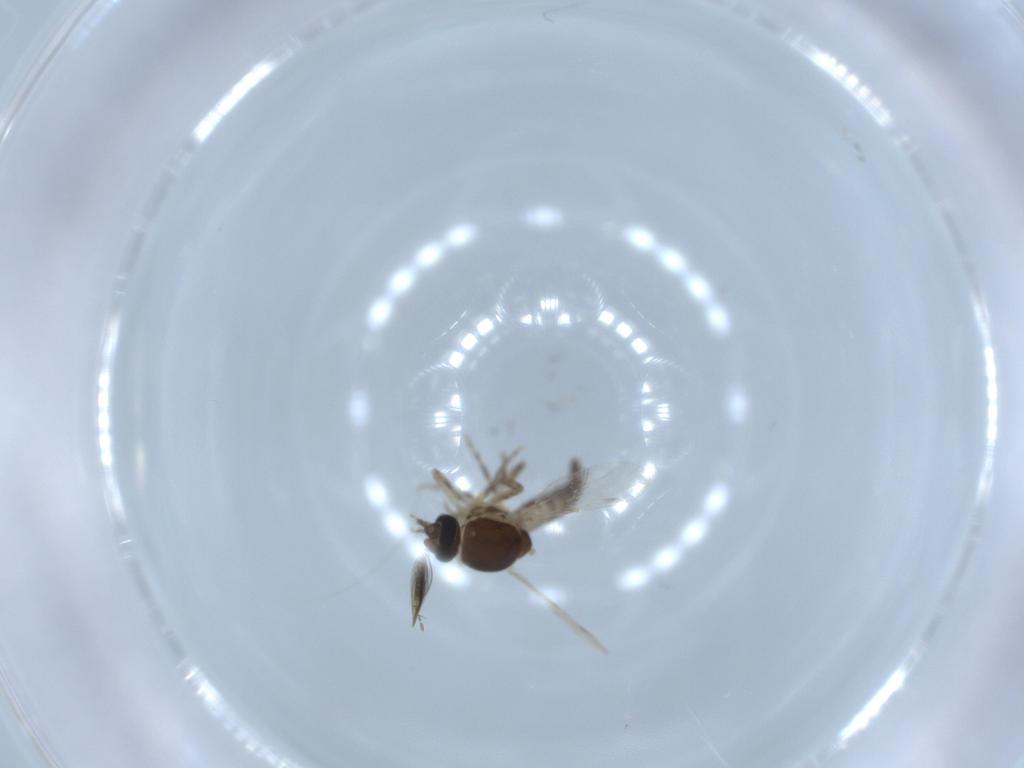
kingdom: Animalia
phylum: Arthropoda
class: Insecta
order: Diptera
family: Ceratopogonidae
